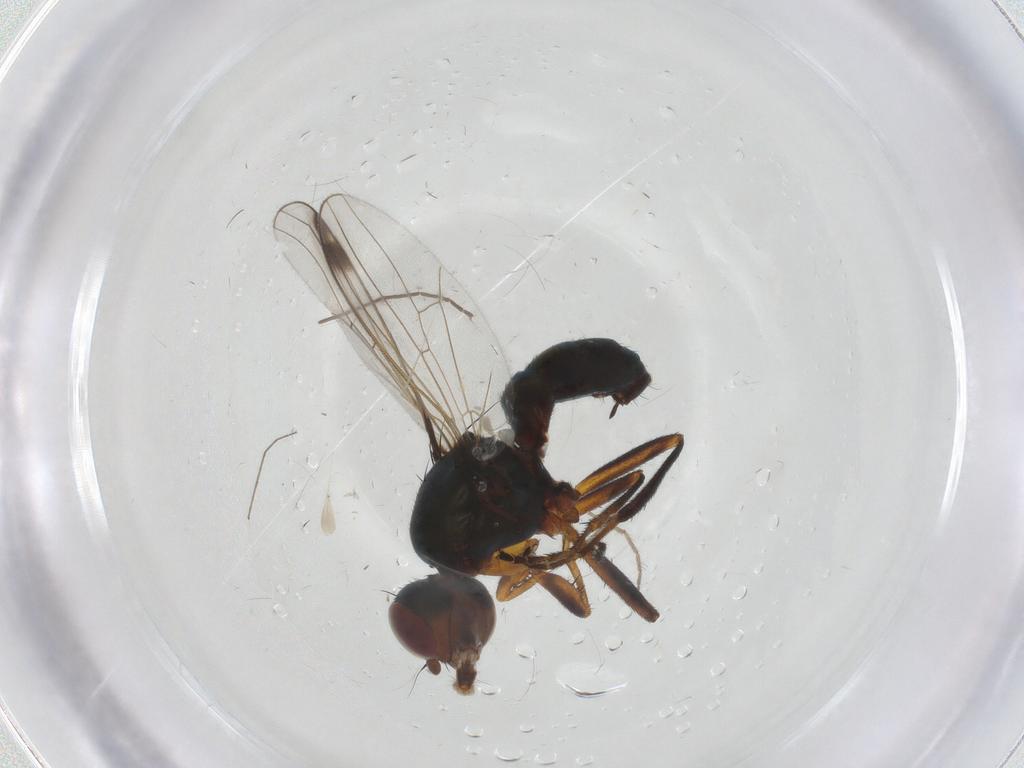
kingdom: Animalia
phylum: Arthropoda
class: Insecta
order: Diptera
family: Sepsidae
